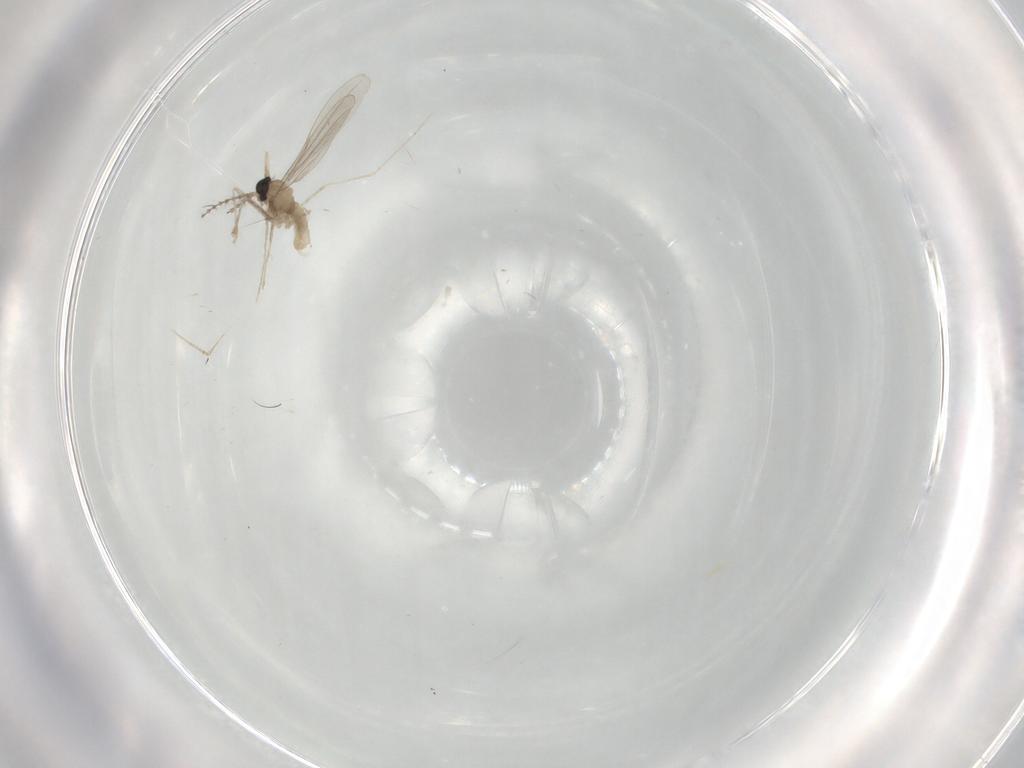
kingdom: Animalia
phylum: Arthropoda
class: Insecta
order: Diptera
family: Cecidomyiidae
